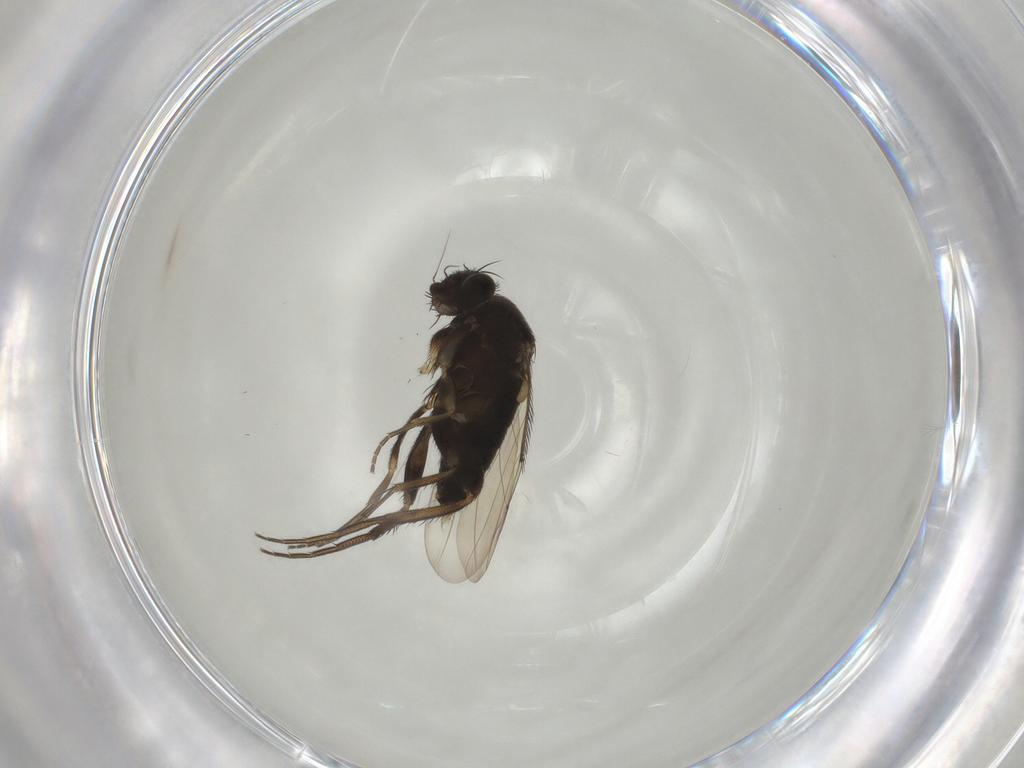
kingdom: Animalia
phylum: Arthropoda
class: Insecta
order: Diptera
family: Phoridae
